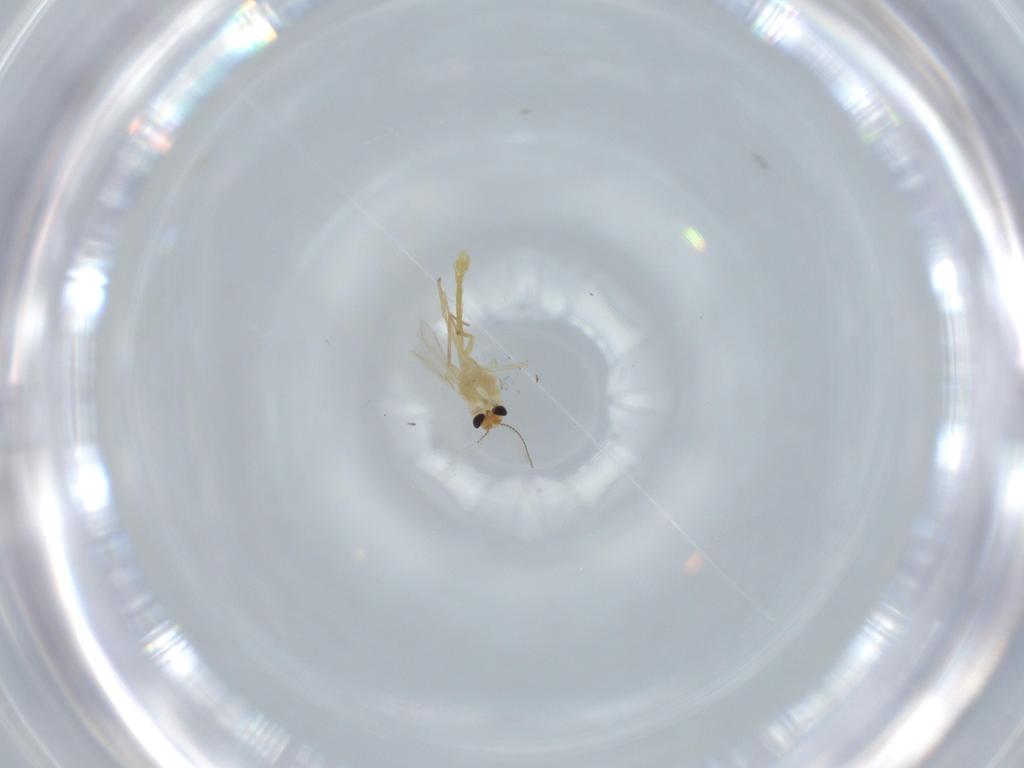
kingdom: Animalia
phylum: Arthropoda
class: Insecta
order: Diptera
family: Chironomidae
